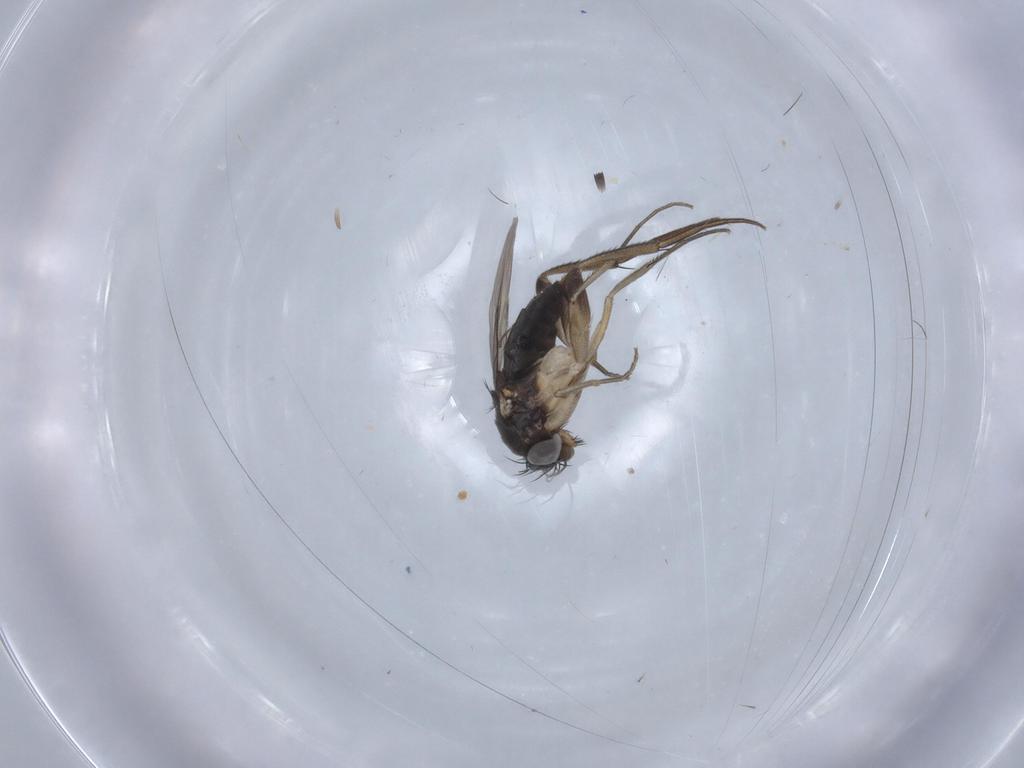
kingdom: Animalia
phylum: Arthropoda
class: Insecta
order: Diptera
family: Phoridae
